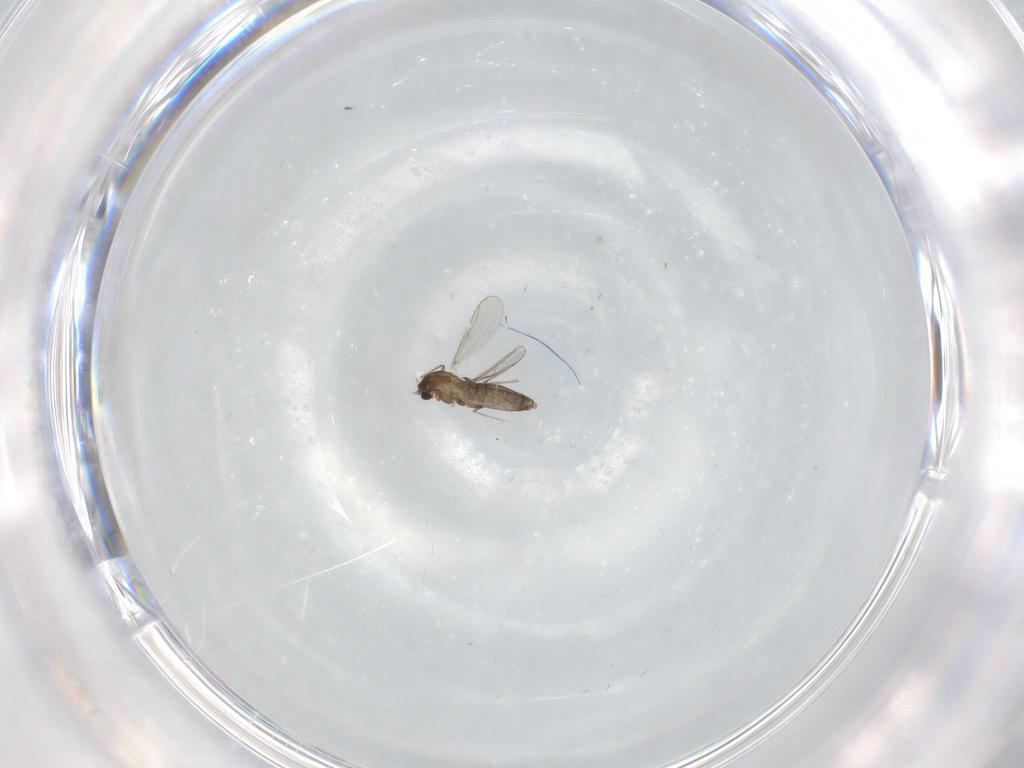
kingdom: Animalia
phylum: Arthropoda
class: Insecta
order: Diptera
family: Chironomidae
